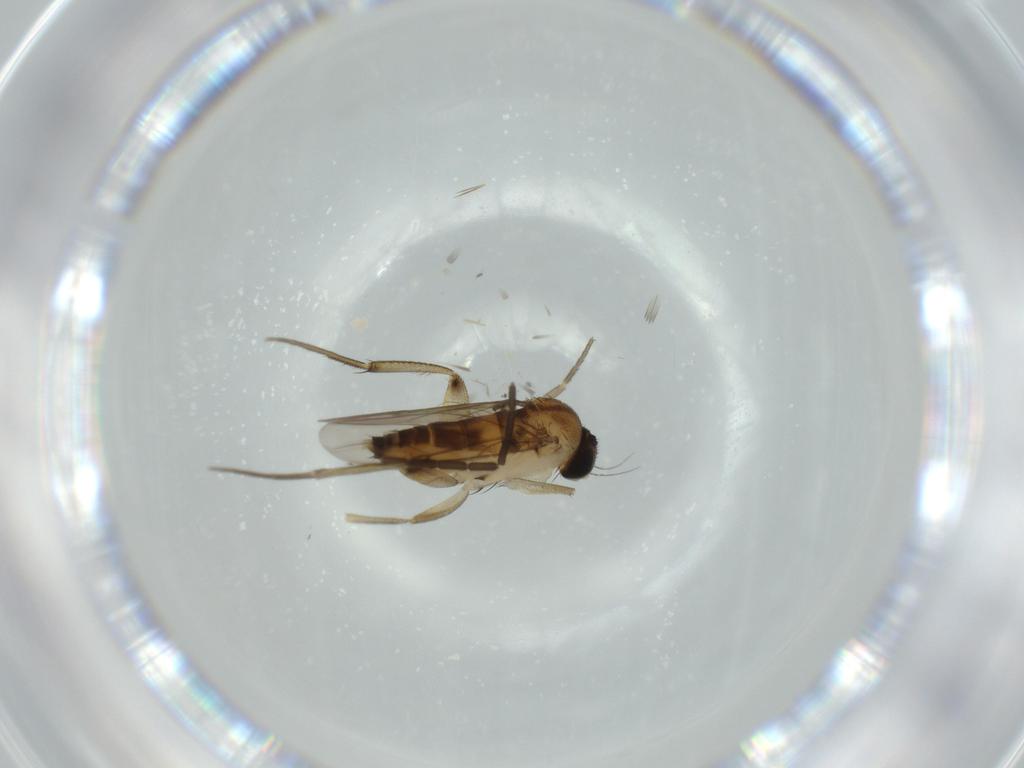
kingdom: Animalia
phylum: Arthropoda
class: Insecta
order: Diptera
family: Phoridae
